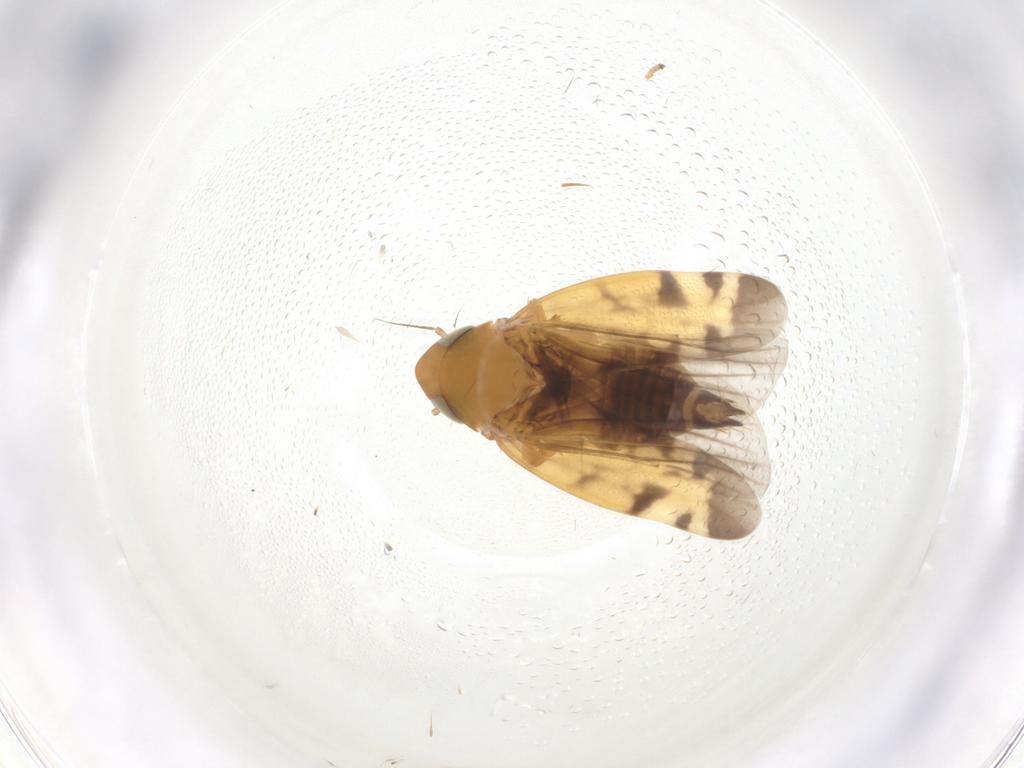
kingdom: Animalia
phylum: Arthropoda
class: Insecta
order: Hemiptera
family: Cicadellidae
